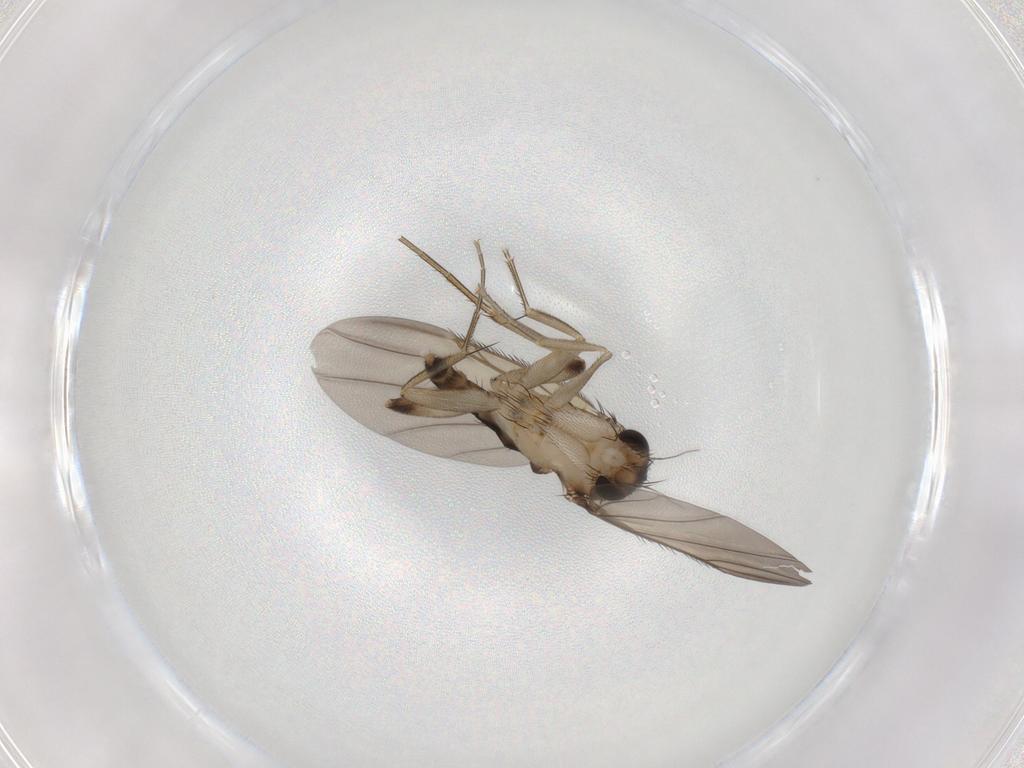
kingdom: Animalia
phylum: Arthropoda
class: Insecta
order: Diptera
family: Phoridae
